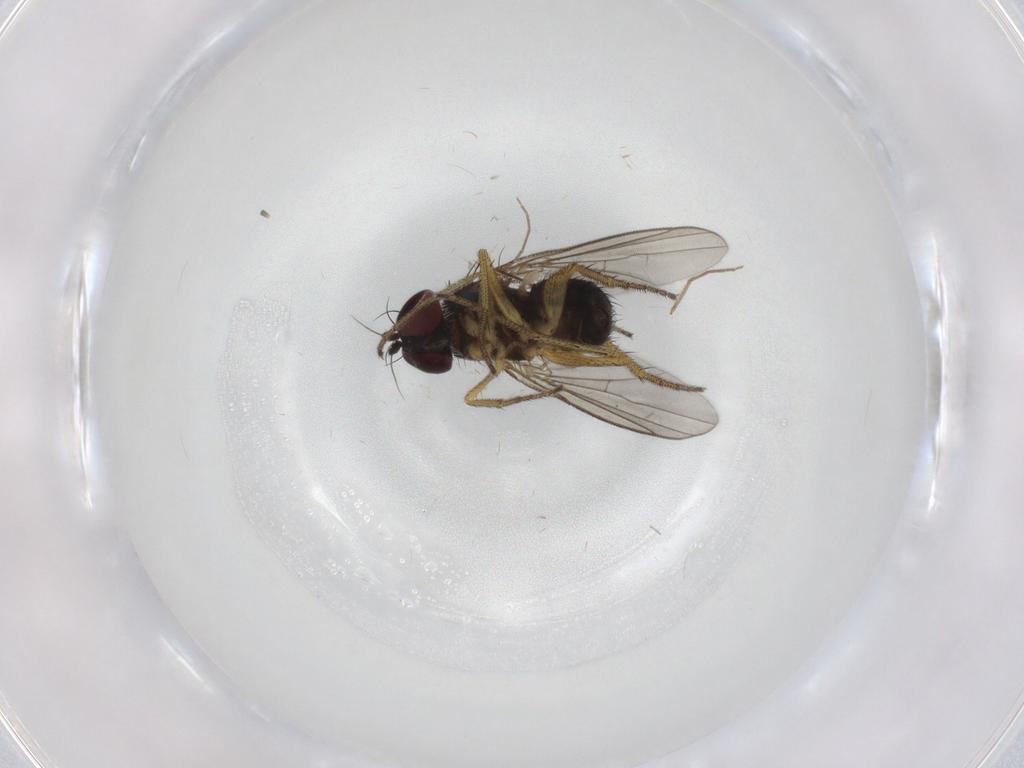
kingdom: Animalia
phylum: Arthropoda
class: Insecta
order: Diptera
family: Chironomidae
